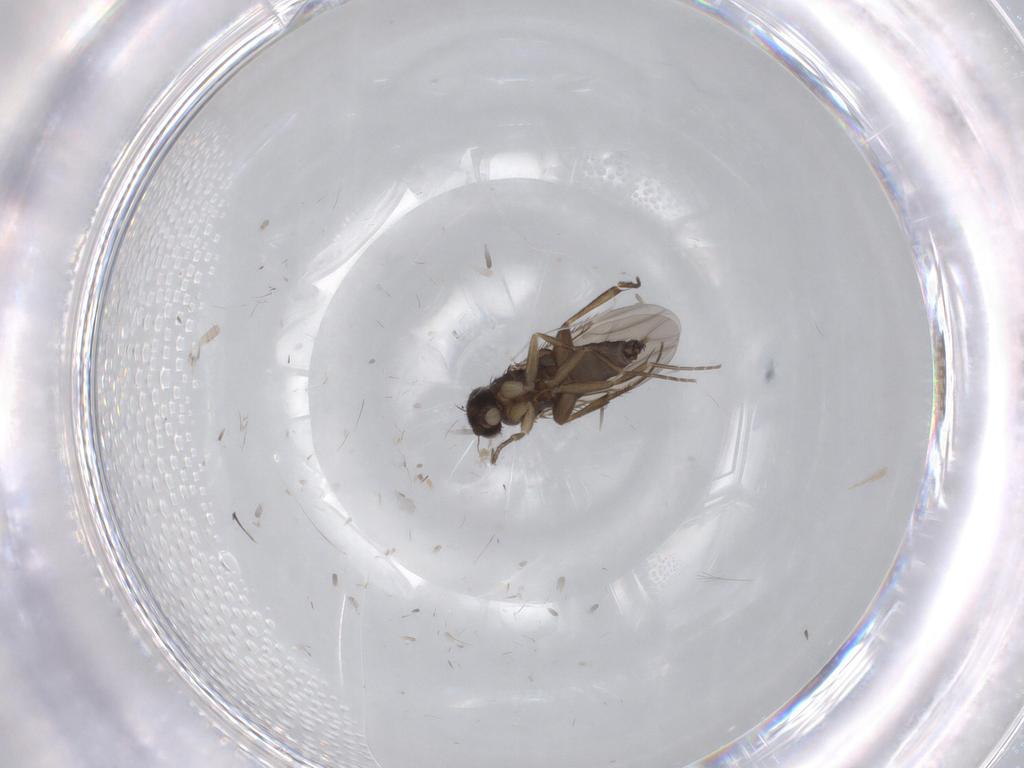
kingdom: Animalia
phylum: Arthropoda
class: Insecta
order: Diptera
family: Phoridae
